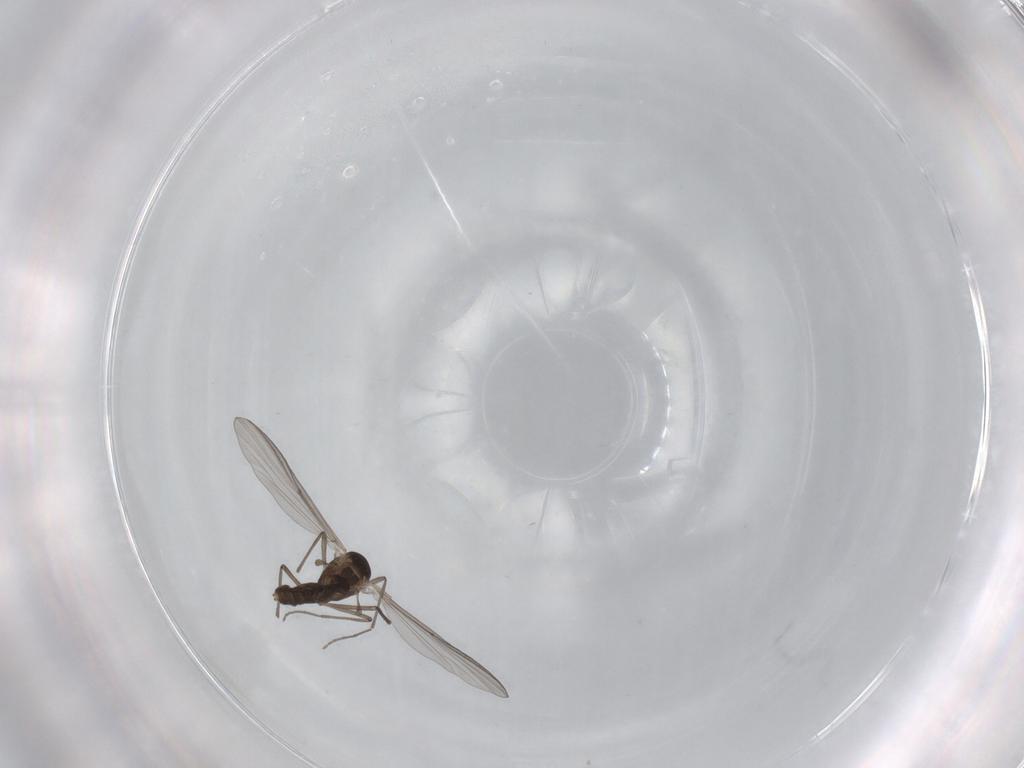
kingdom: Animalia
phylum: Arthropoda
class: Insecta
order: Diptera
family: Chironomidae
